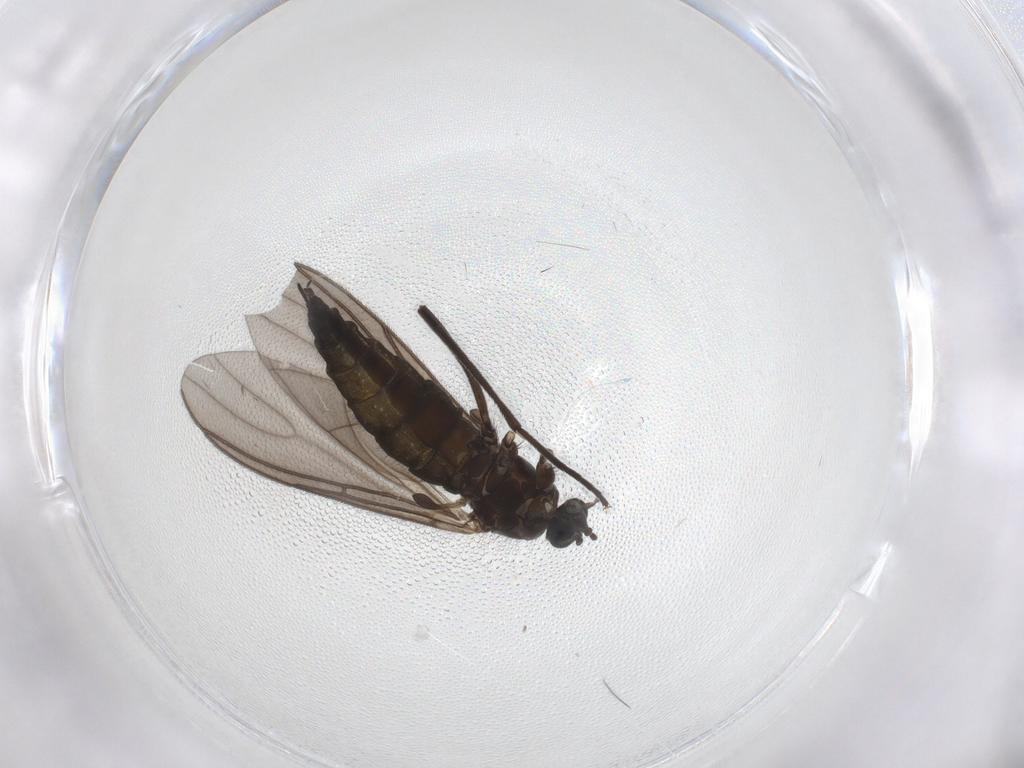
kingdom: Animalia
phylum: Arthropoda
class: Insecta
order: Diptera
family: Sciaridae
